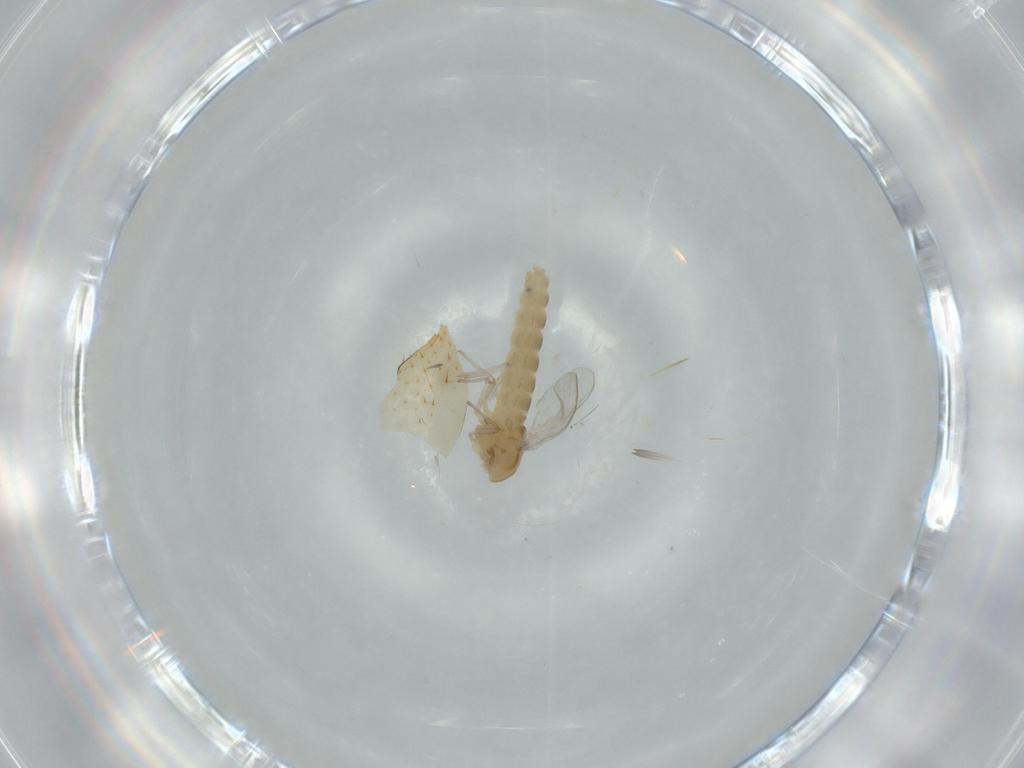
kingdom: Animalia
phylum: Arthropoda
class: Insecta
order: Diptera
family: Chironomidae
